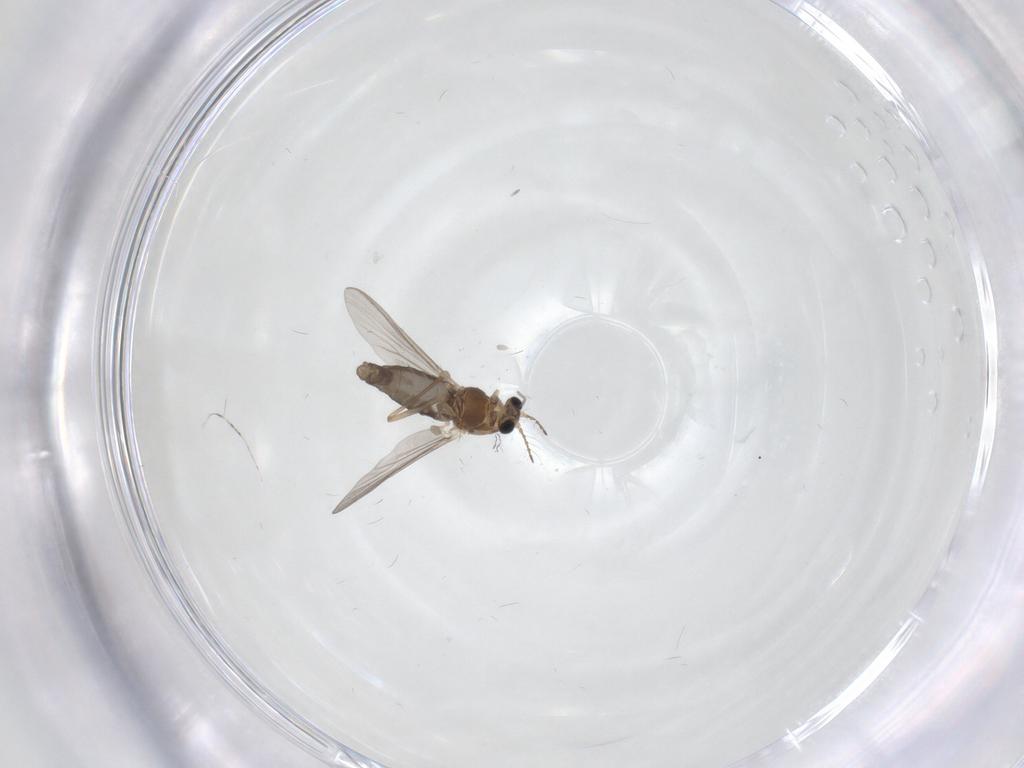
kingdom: Animalia
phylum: Arthropoda
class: Insecta
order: Diptera
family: Chironomidae
